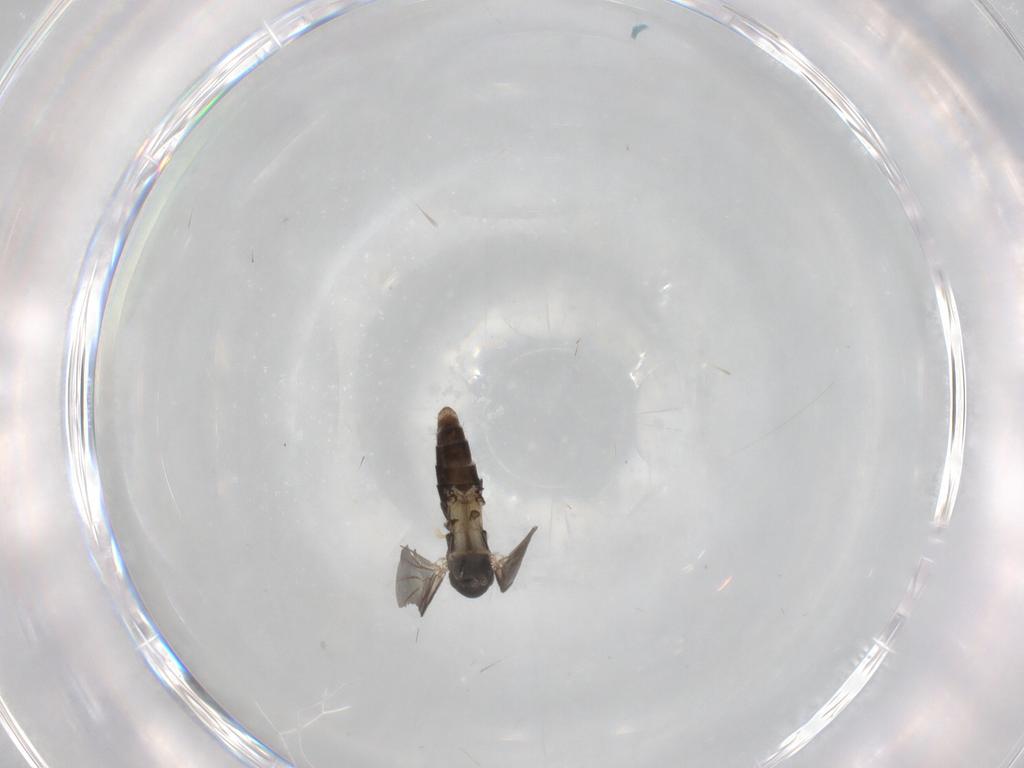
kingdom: Animalia
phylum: Arthropoda
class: Insecta
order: Diptera
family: Mycetophilidae
